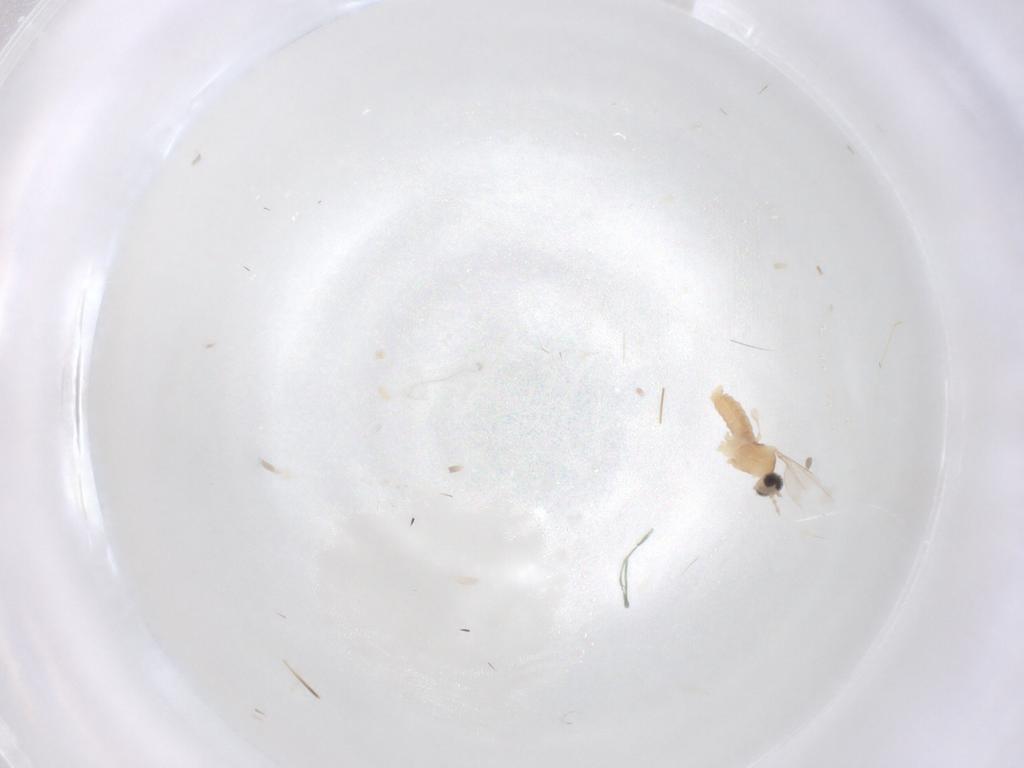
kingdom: Animalia
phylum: Arthropoda
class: Insecta
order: Diptera
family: Cecidomyiidae
